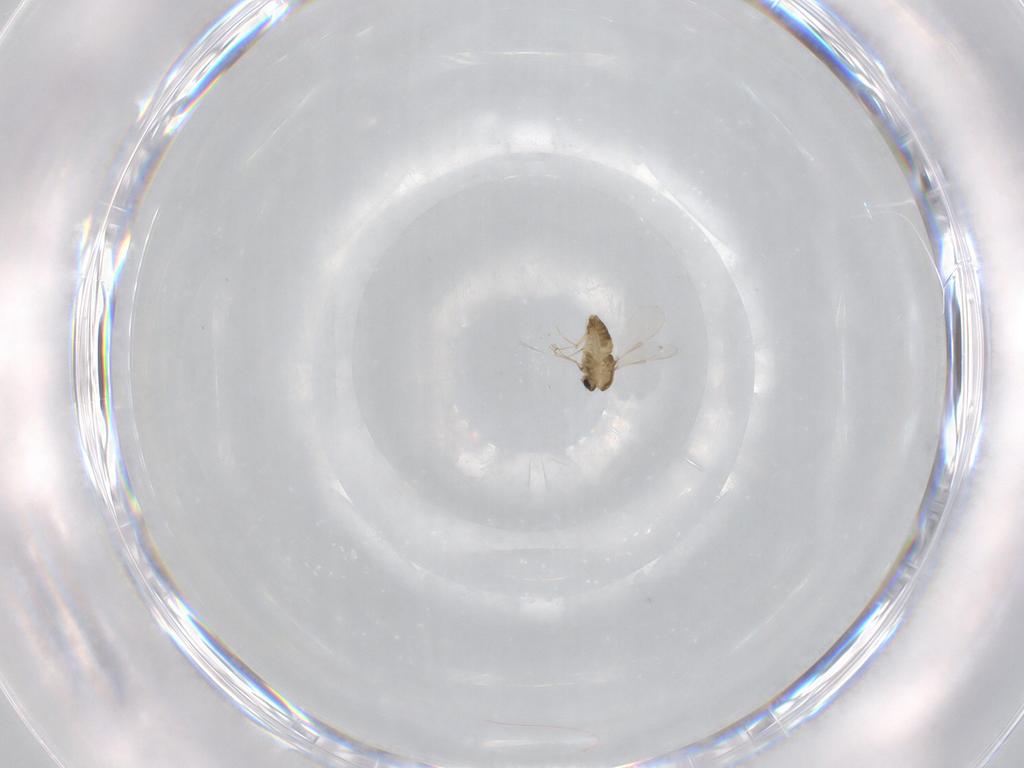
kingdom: Animalia
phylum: Arthropoda
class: Insecta
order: Diptera
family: Chironomidae
